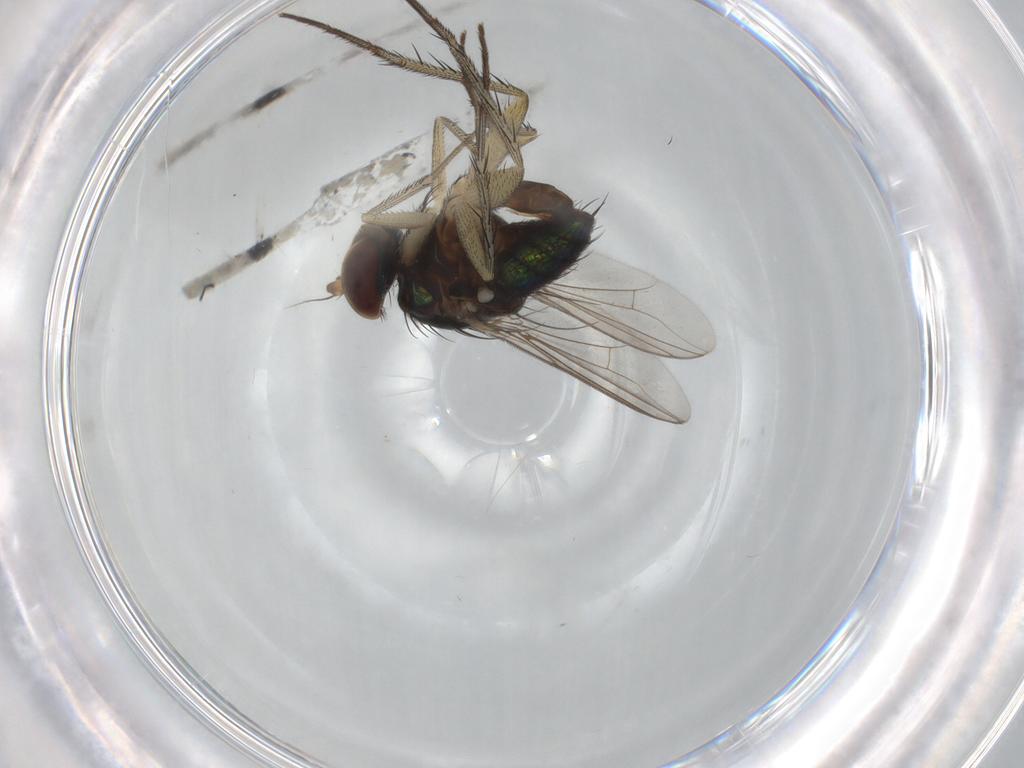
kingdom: Animalia
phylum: Arthropoda
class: Insecta
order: Diptera
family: Dolichopodidae
